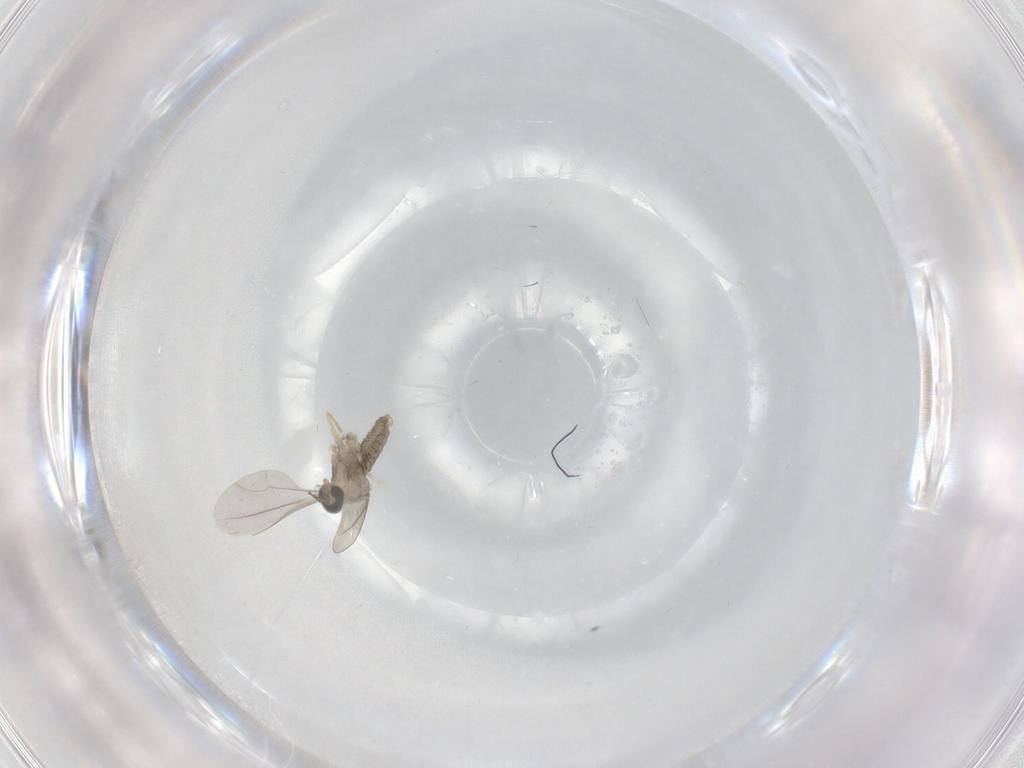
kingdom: Animalia
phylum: Arthropoda
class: Insecta
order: Diptera
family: Cecidomyiidae
